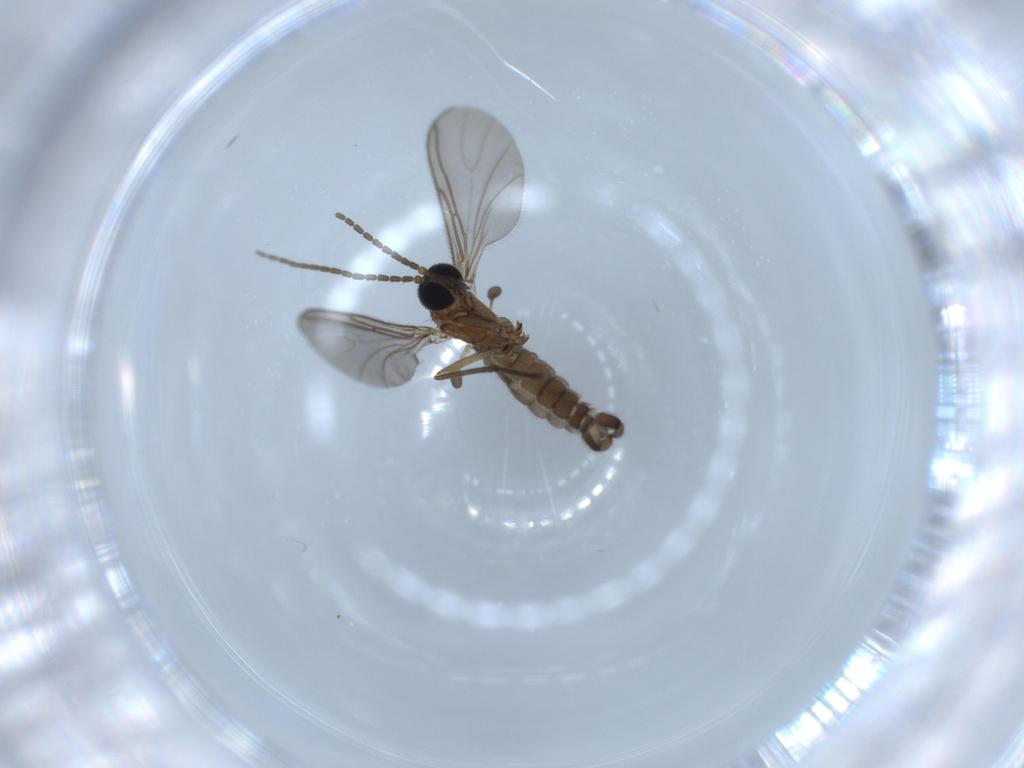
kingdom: Animalia
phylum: Arthropoda
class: Insecta
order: Diptera
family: Sciaridae
